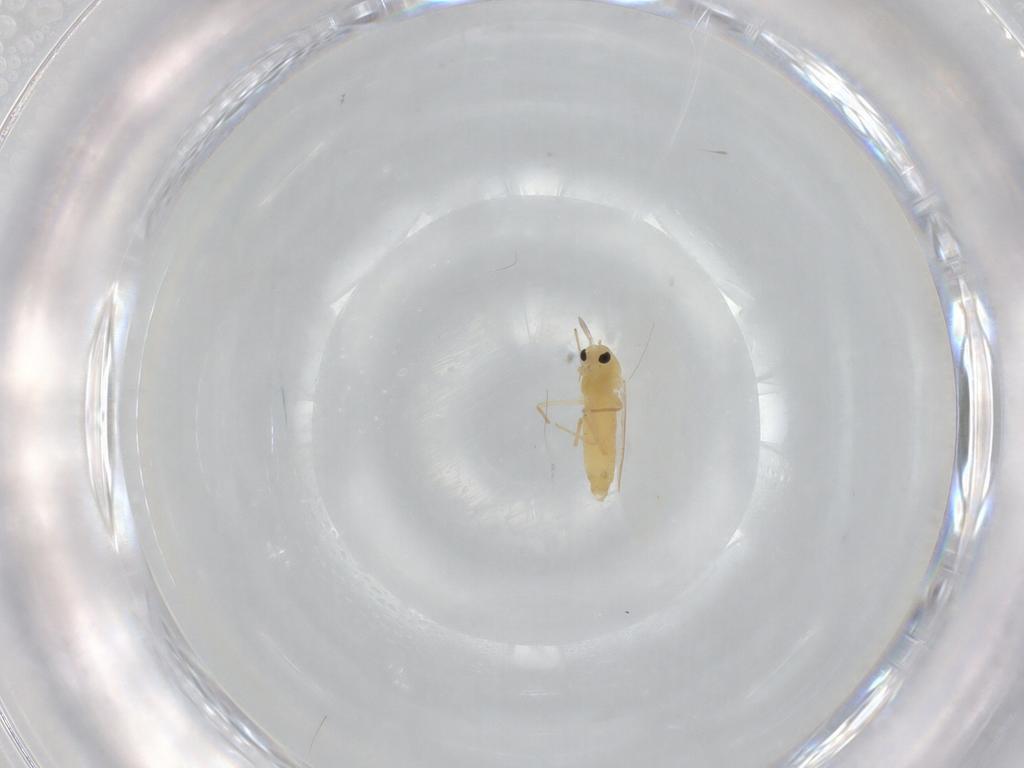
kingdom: Animalia
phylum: Arthropoda
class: Insecta
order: Diptera
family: Chironomidae
